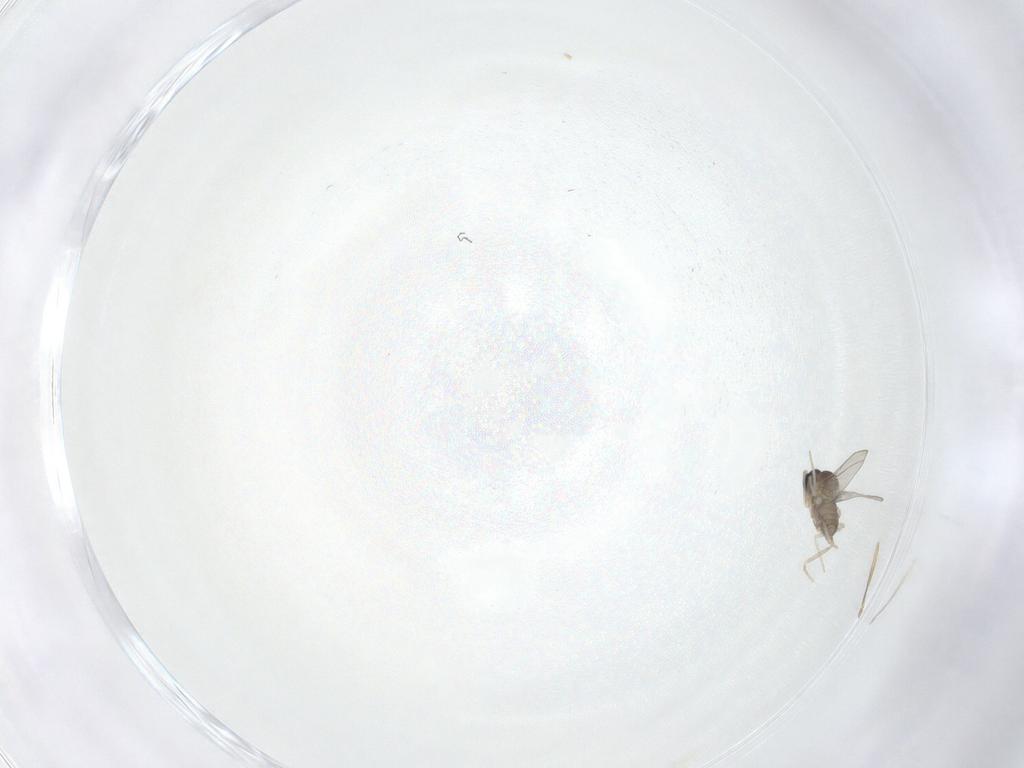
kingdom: Animalia
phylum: Arthropoda
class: Insecta
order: Diptera
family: Cecidomyiidae
